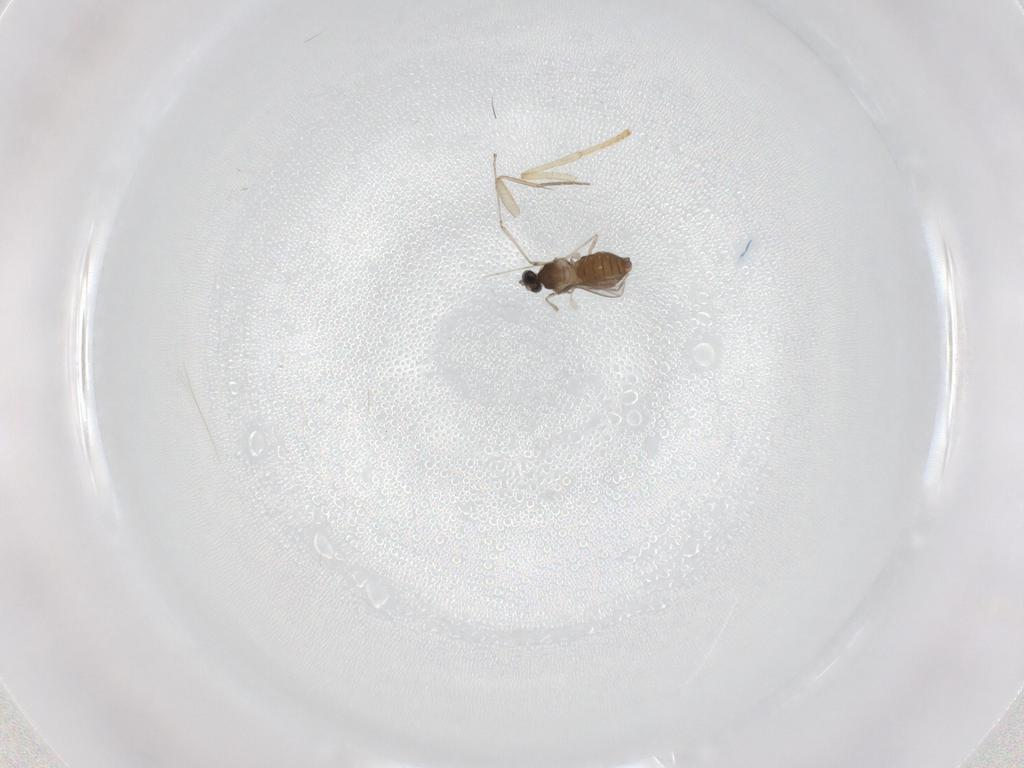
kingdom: Animalia
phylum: Arthropoda
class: Insecta
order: Diptera
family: Psychodidae
